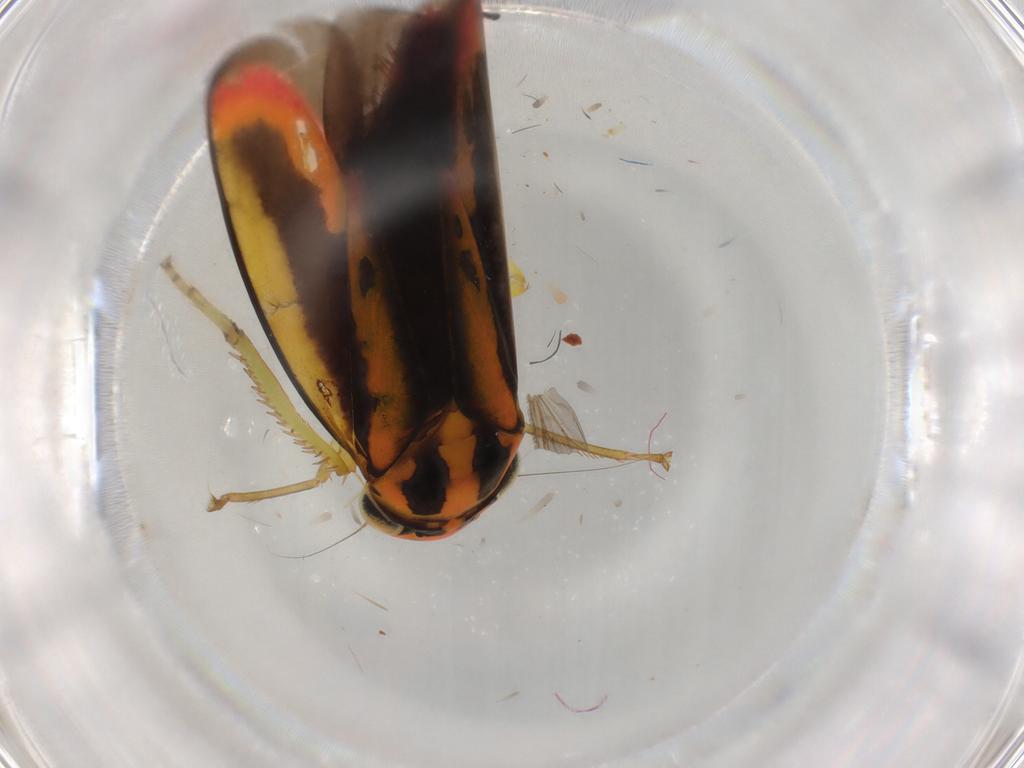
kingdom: Animalia
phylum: Arthropoda
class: Insecta
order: Hemiptera
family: Cicadellidae
